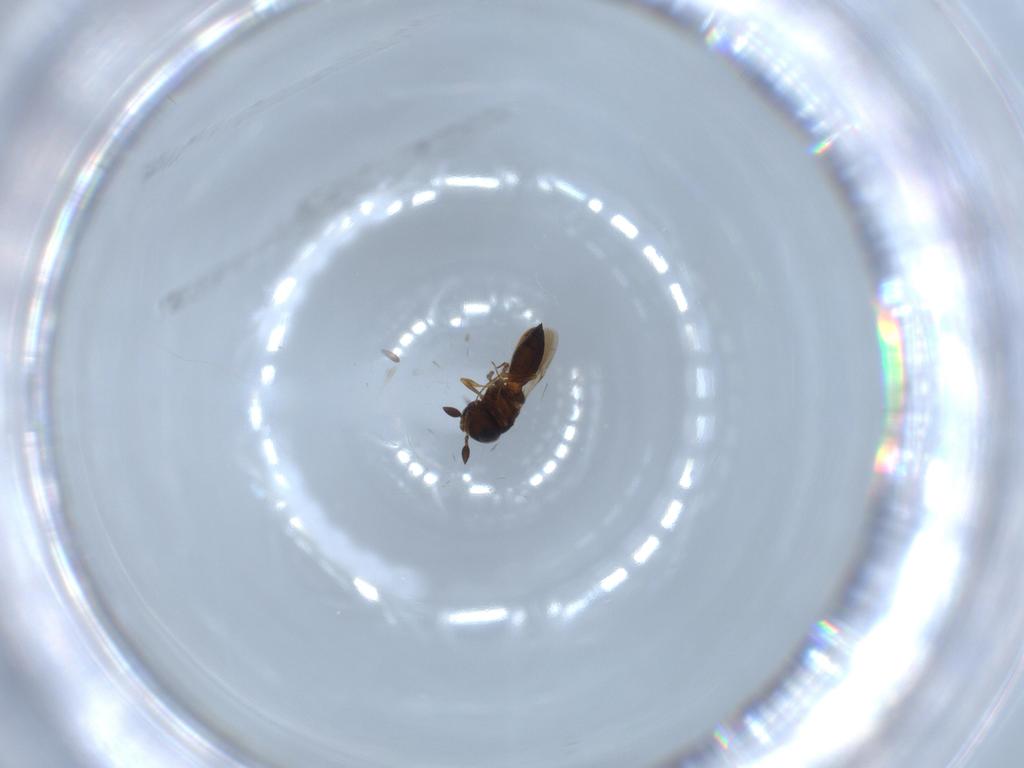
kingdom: Animalia
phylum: Arthropoda
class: Insecta
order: Hymenoptera
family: Scelionidae
